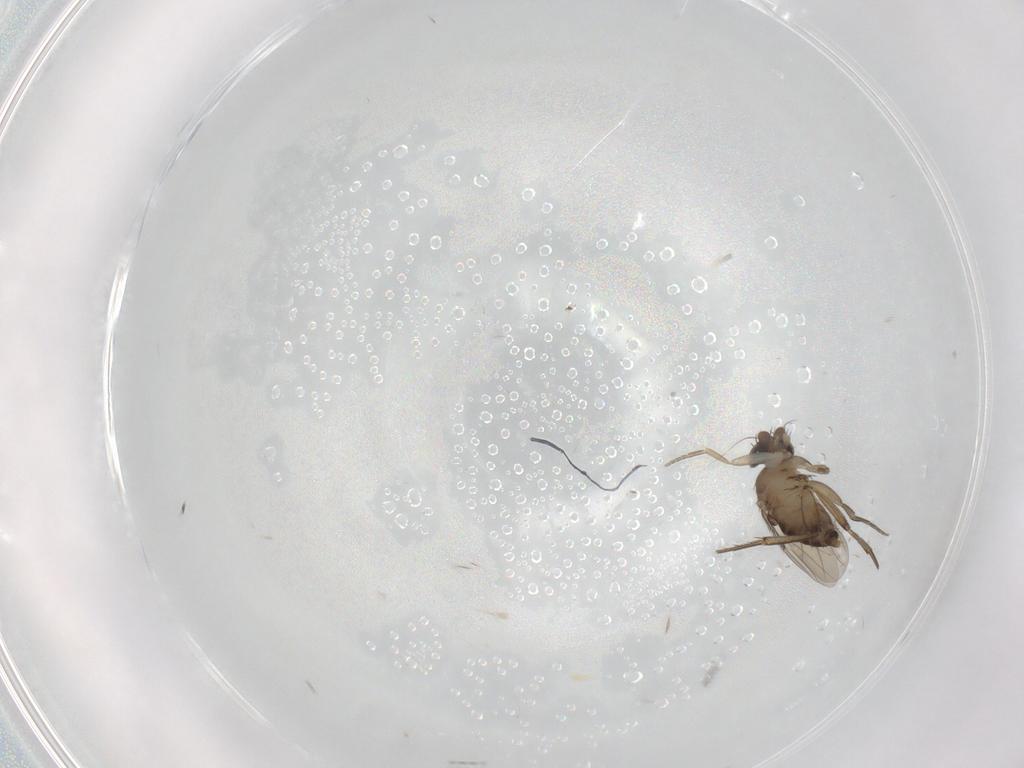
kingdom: Animalia
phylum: Arthropoda
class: Insecta
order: Diptera
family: Phoridae
